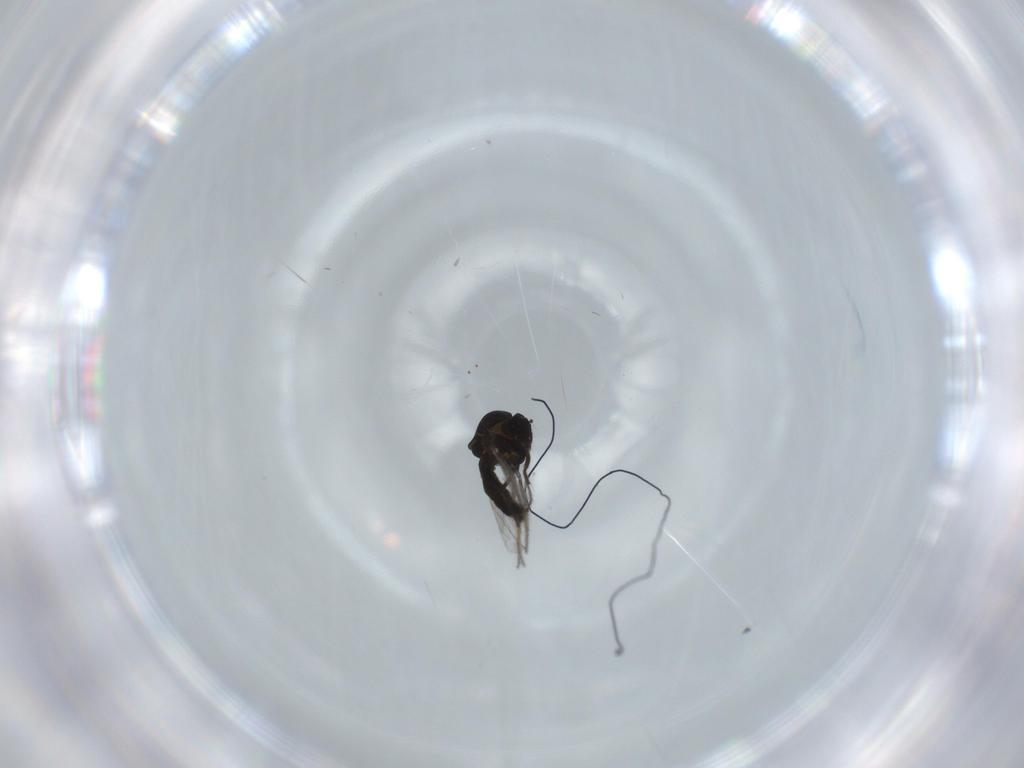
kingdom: Animalia
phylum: Arthropoda
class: Insecta
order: Diptera
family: Ceratopogonidae
